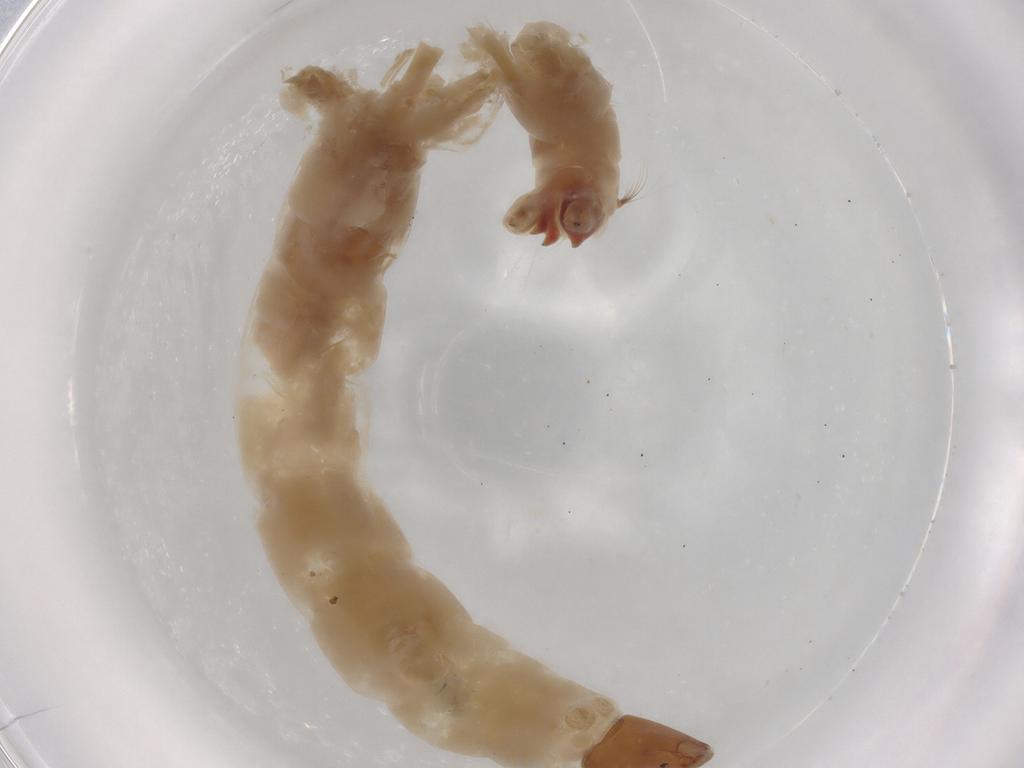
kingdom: Animalia
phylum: Arthropoda
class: Insecta
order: Diptera
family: Chironomidae
